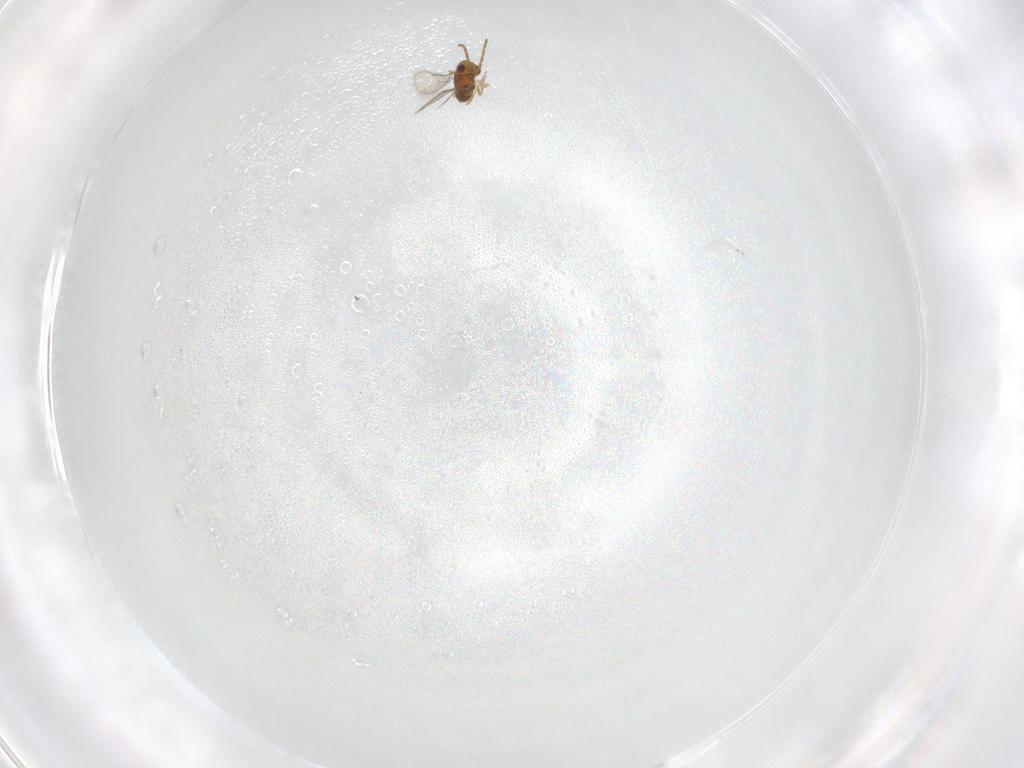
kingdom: Animalia
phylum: Arthropoda
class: Insecta
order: Hymenoptera
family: Aphelinidae
